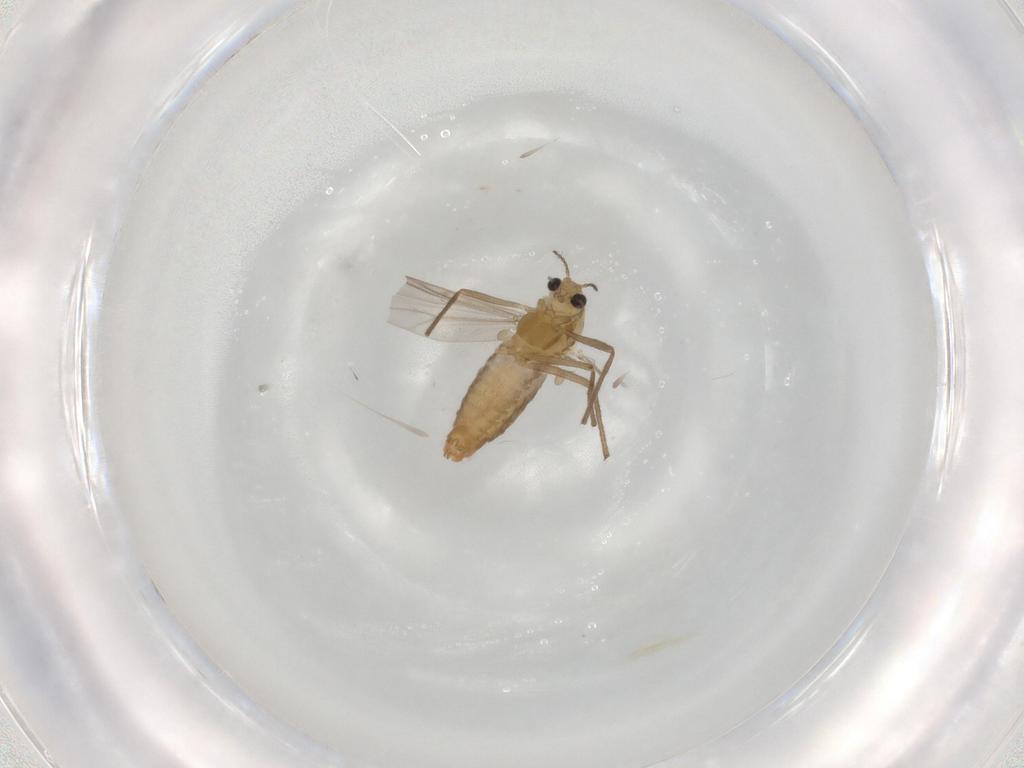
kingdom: Animalia
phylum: Arthropoda
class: Insecta
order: Diptera
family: Chironomidae
